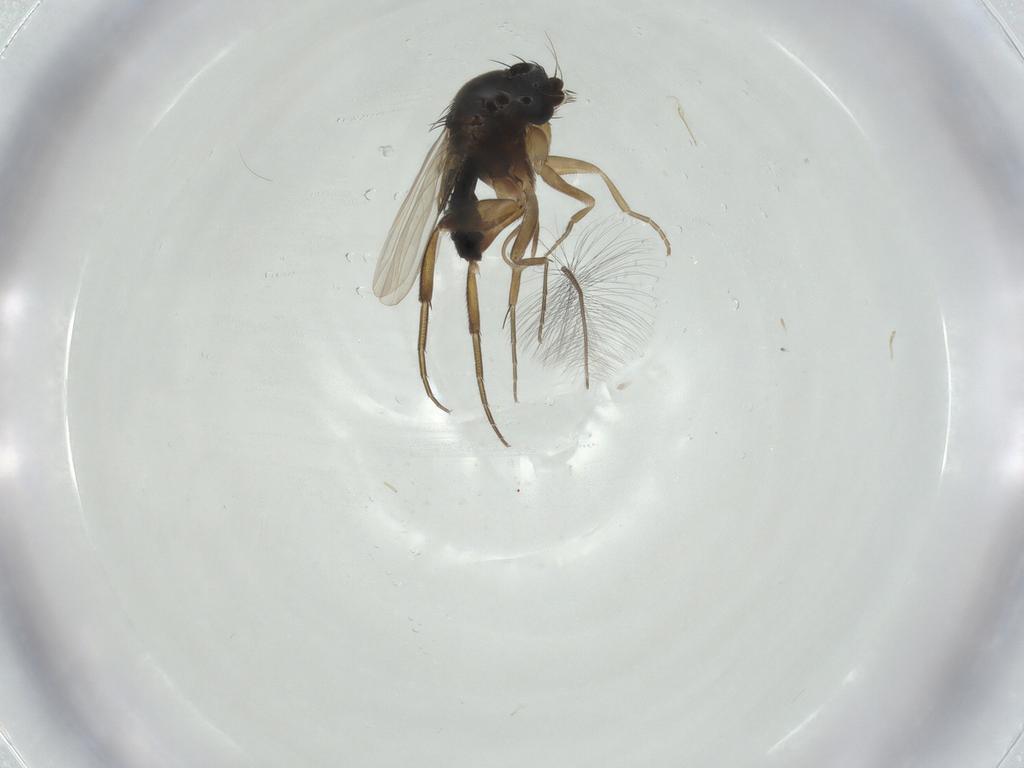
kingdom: Animalia
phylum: Arthropoda
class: Insecta
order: Diptera
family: Chironomidae
